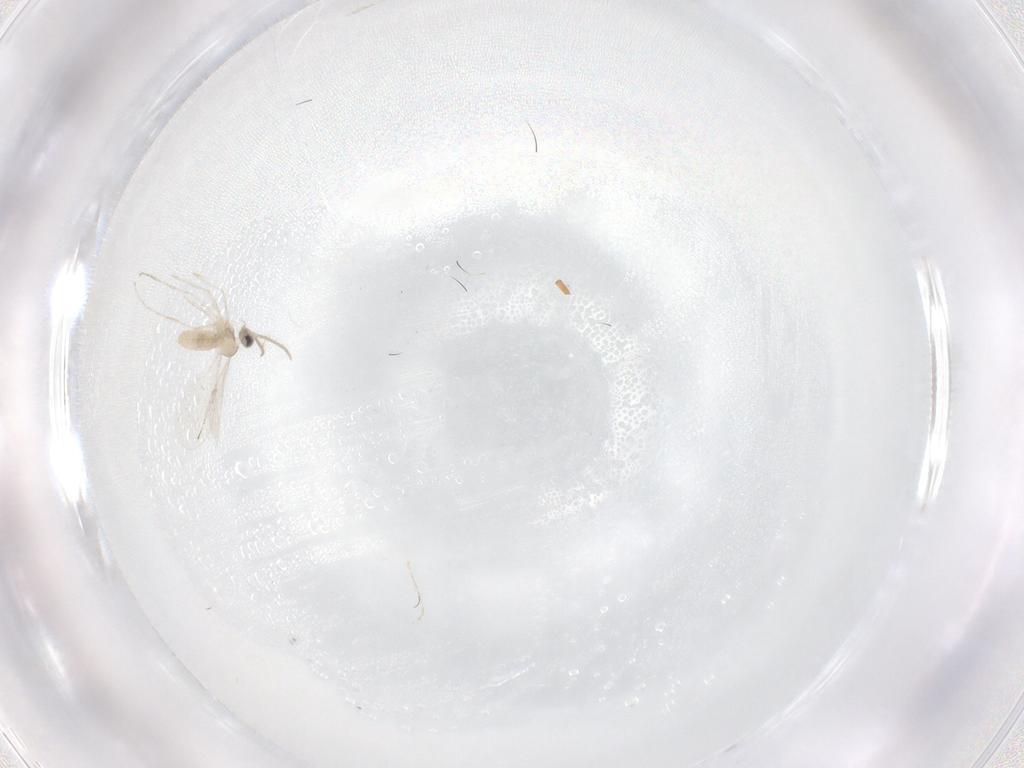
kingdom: Animalia
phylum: Arthropoda
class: Insecta
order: Diptera
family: Cecidomyiidae
